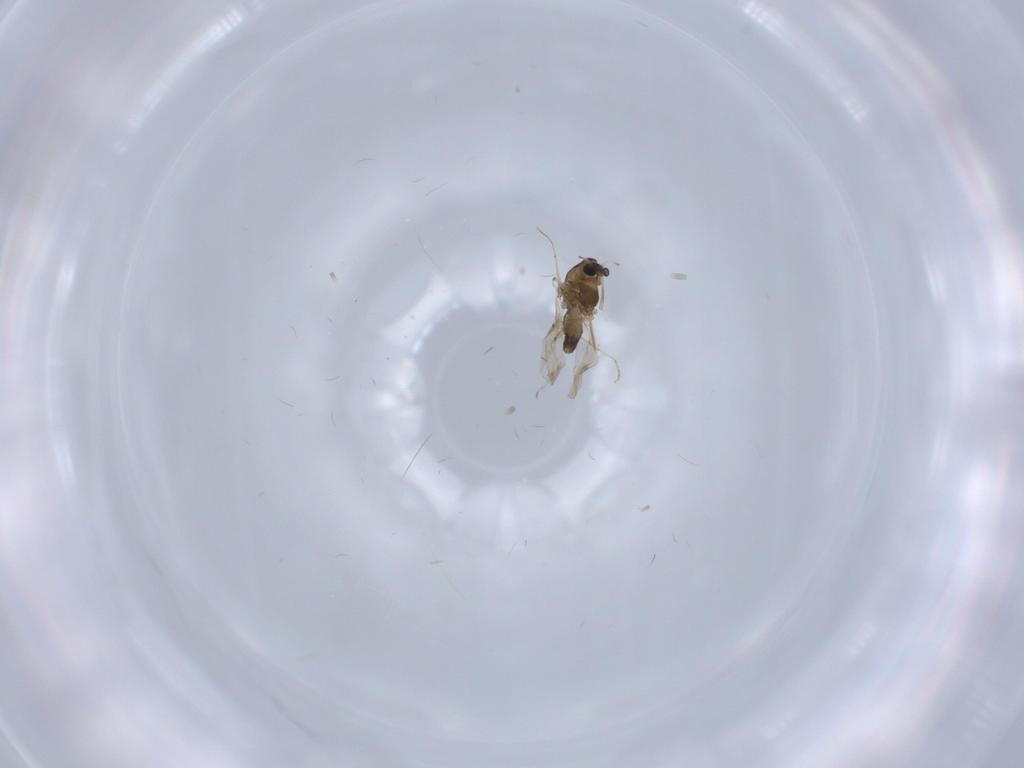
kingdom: Animalia
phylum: Arthropoda
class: Insecta
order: Diptera
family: Chironomidae
